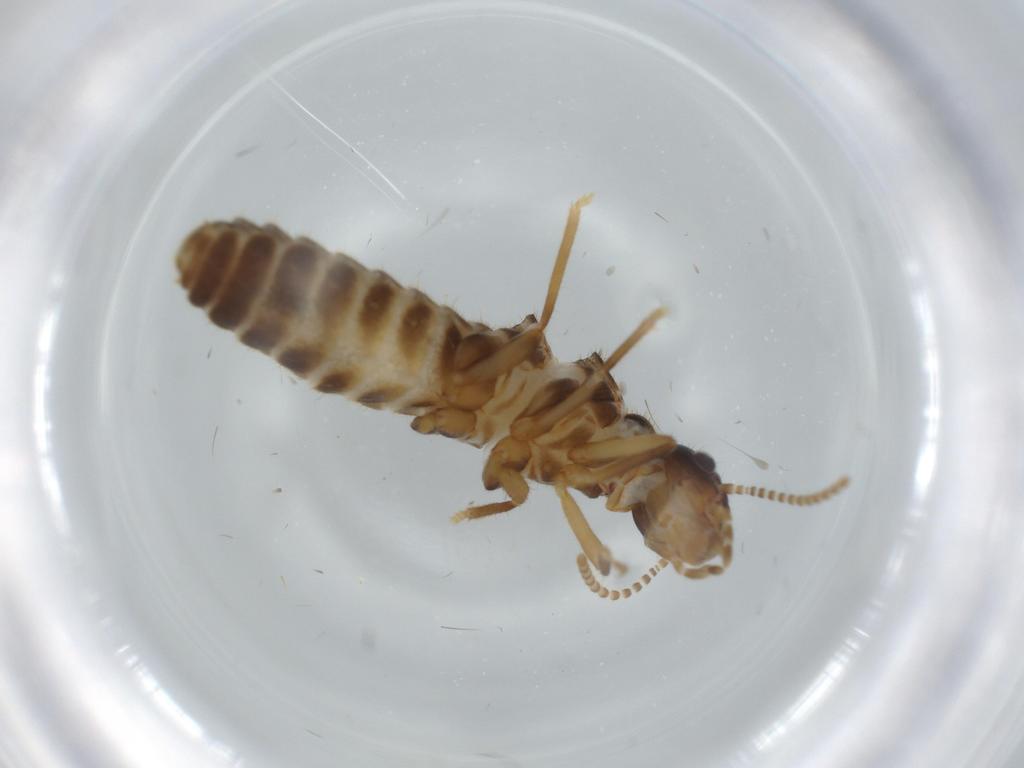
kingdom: Animalia
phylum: Arthropoda
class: Insecta
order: Blattodea
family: Termitidae
